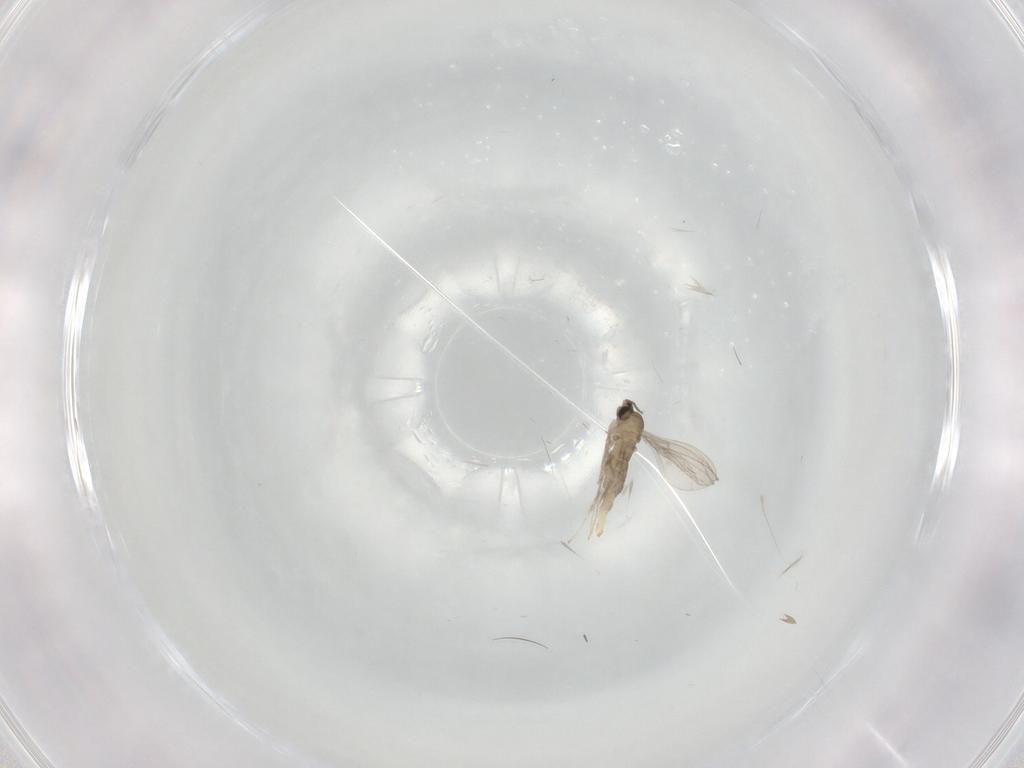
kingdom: Animalia
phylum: Arthropoda
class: Insecta
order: Diptera
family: Cecidomyiidae
